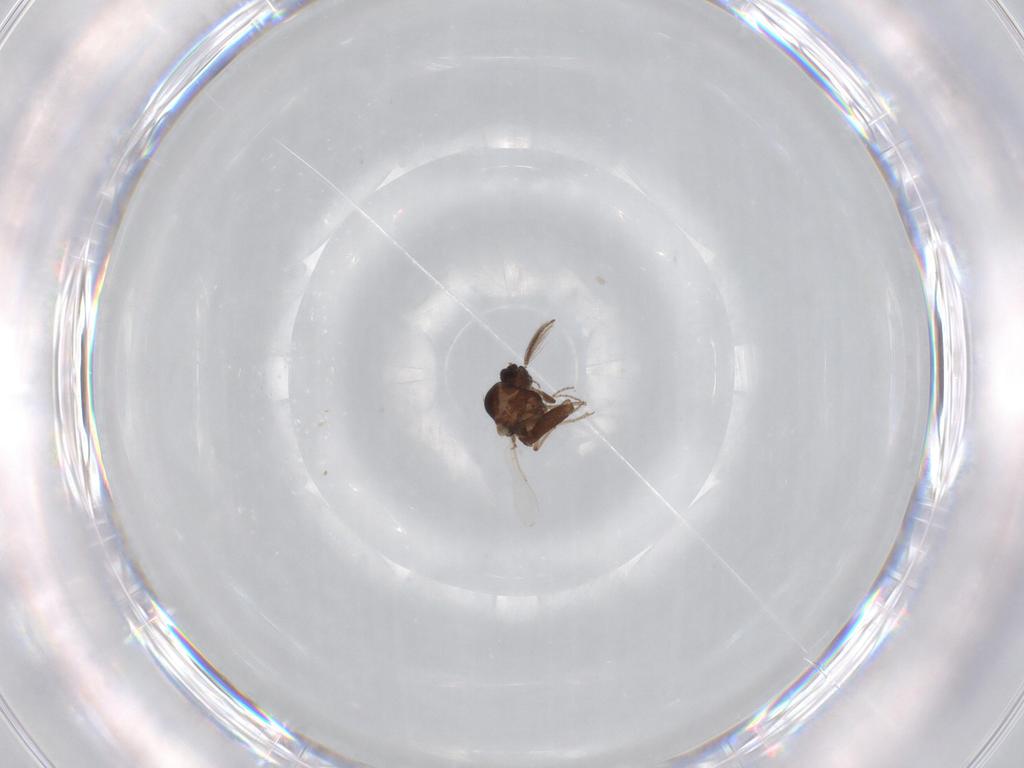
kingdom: Animalia
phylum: Arthropoda
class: Insecta
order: Diptera
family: Ceratopogonidae
